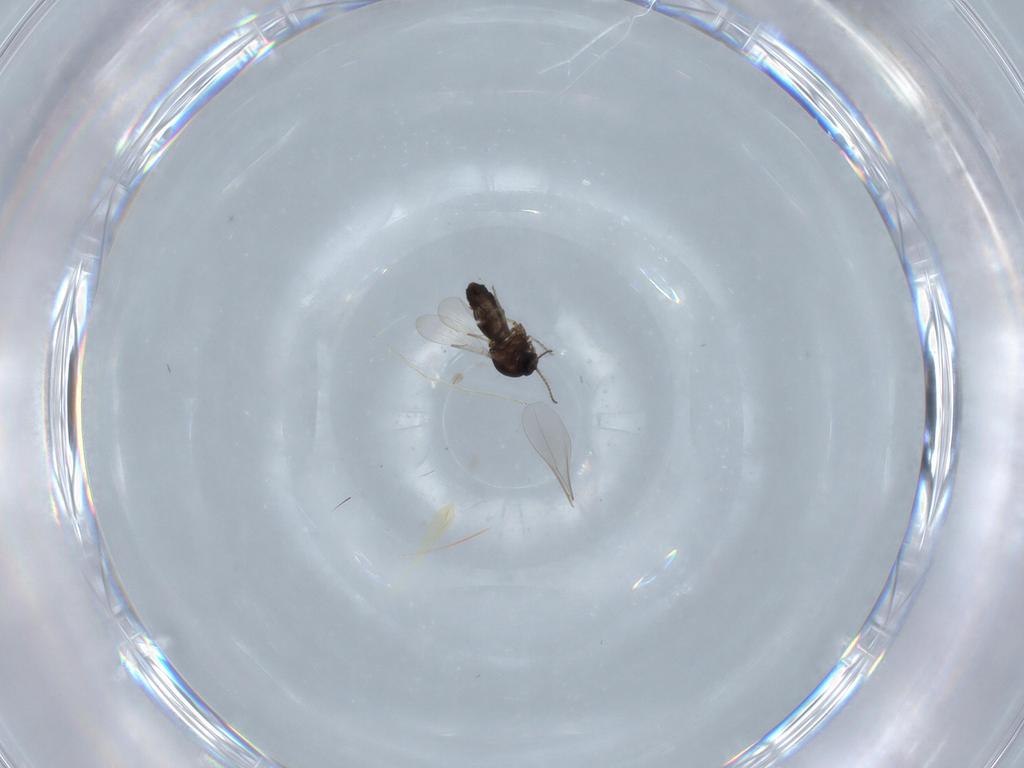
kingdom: Animalia
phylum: Arthropoda
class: Insecta
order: Diptera
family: Ceratopogonidae
